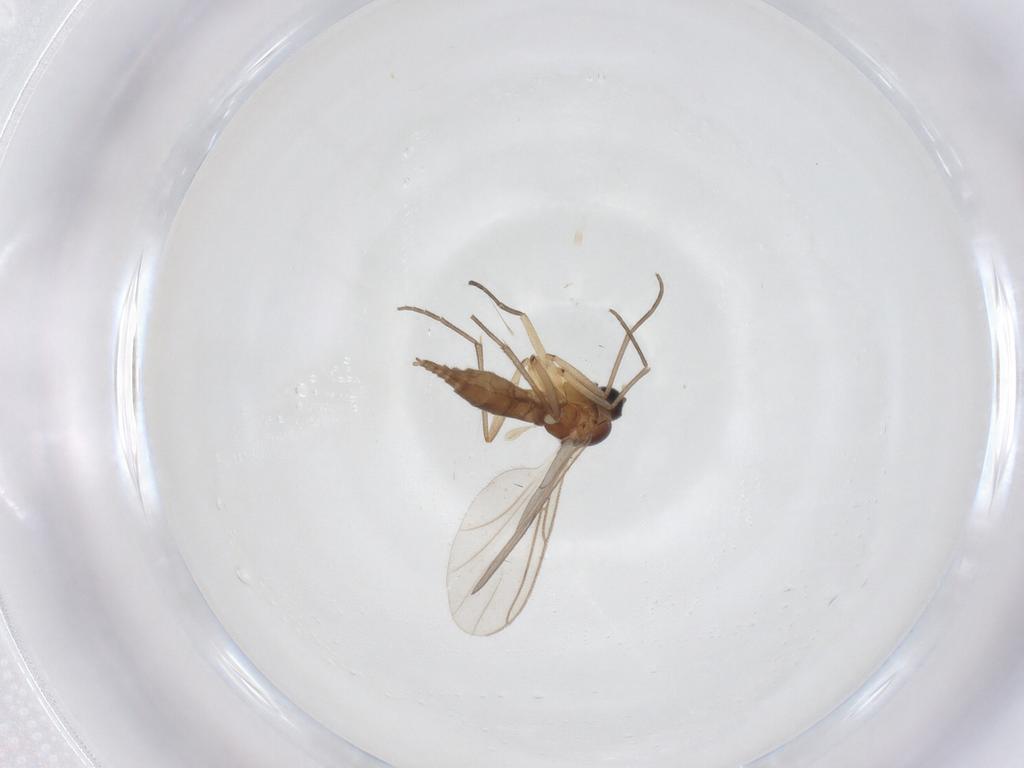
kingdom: Animalia
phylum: Arthropoda
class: Insecta
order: Diptera
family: Sciaridae
